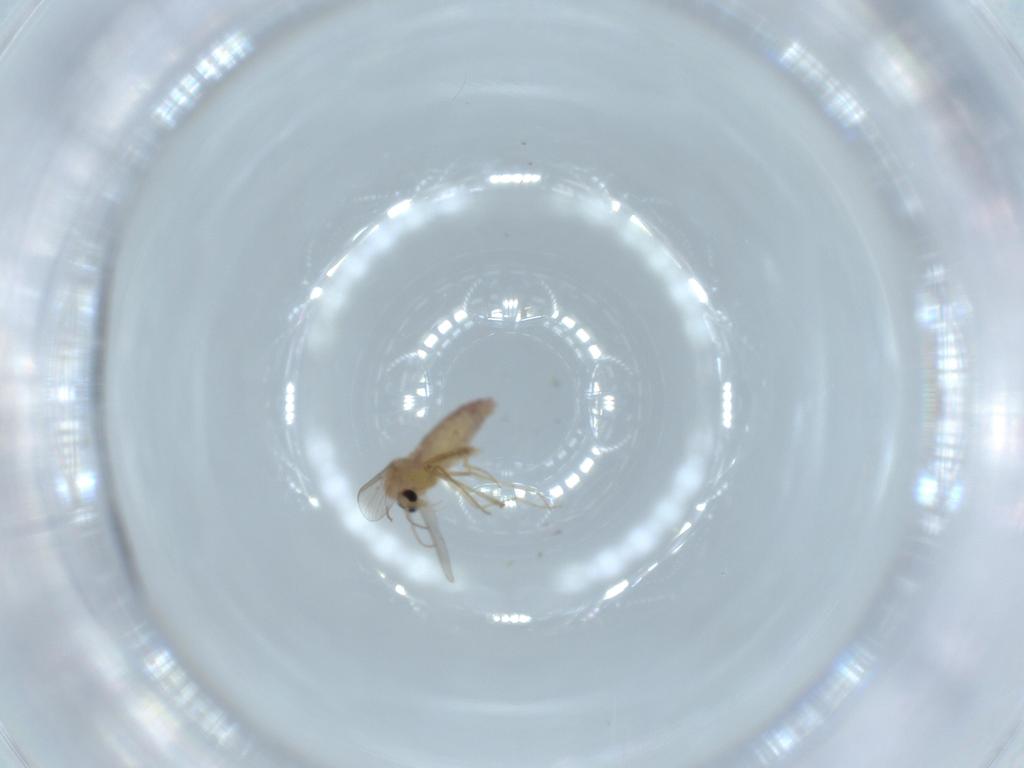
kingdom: Animalia
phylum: Arthropoda
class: Insecta
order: Diptera
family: Chironomidae
